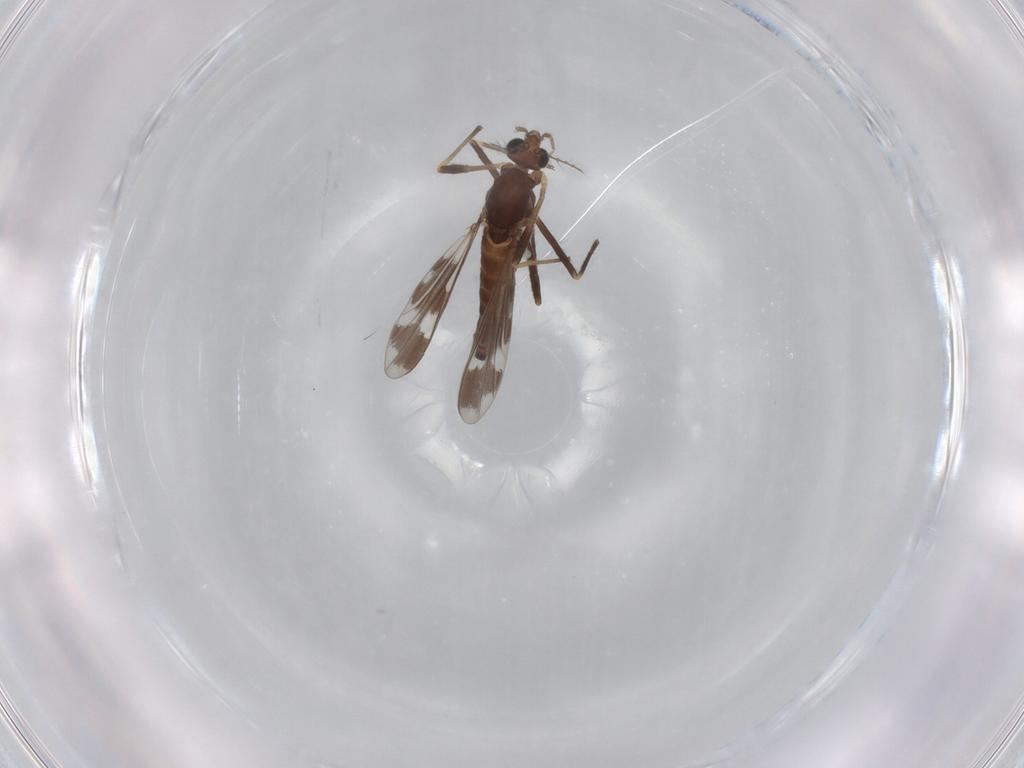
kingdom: Animalia
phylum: Arthropoda
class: Insecta
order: Diptera
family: Chironomidae
